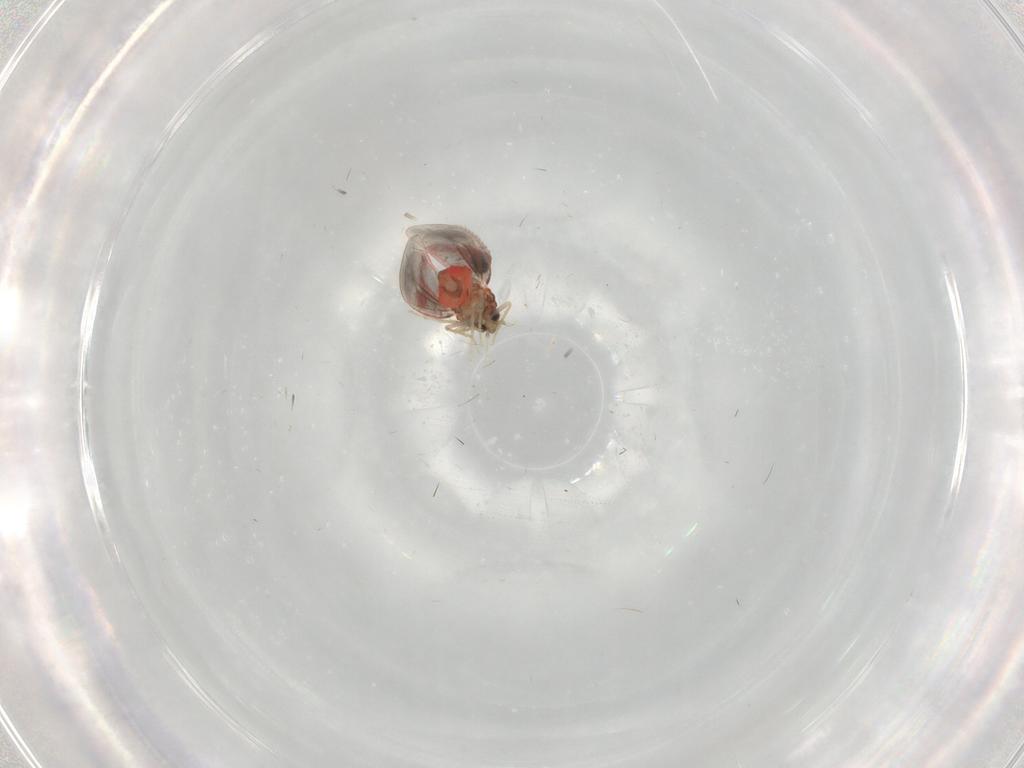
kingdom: Animalia
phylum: Arthropoda
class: Insecta
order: Hemiptera
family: Aleyrodidae
